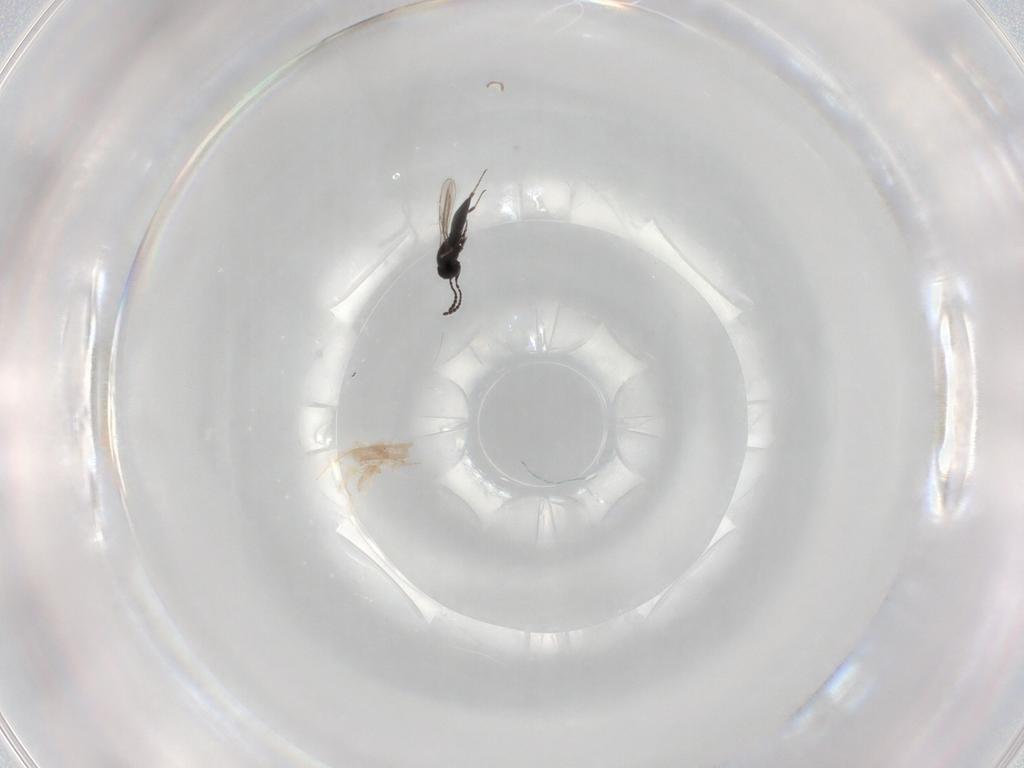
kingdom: Animalia
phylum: Arthropoda
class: Insecta
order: Hymenoptera
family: Scelionidae
